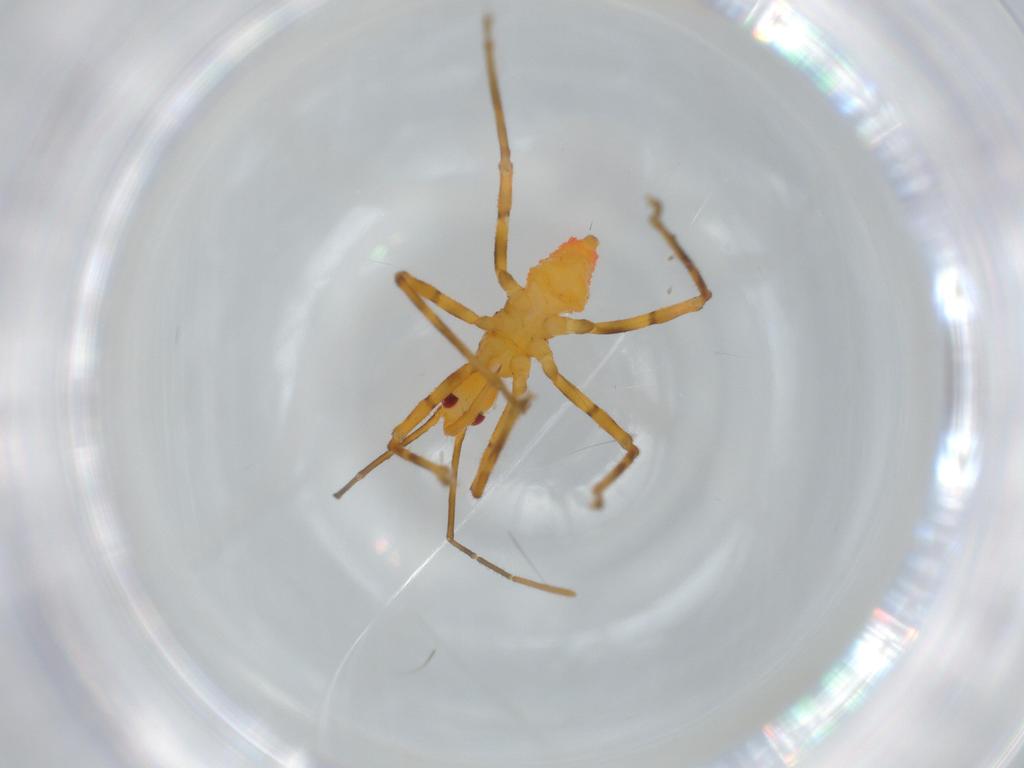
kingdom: Animalia
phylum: Arthropoda
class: Insecta
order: Hemiptera
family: Reduviidae
